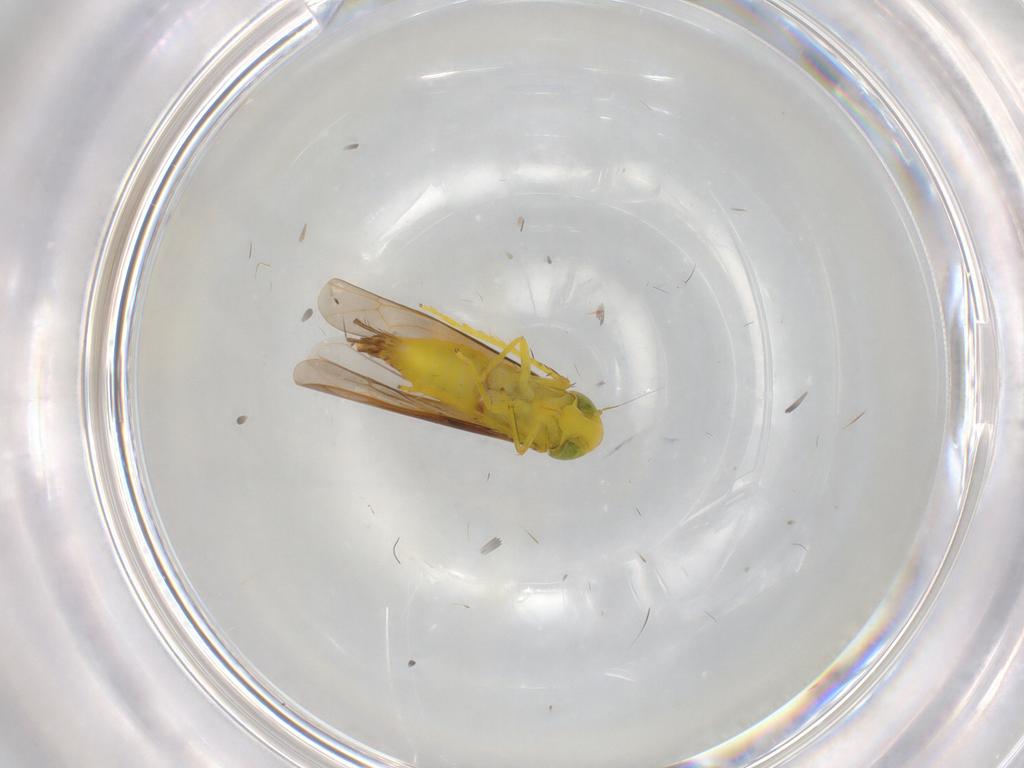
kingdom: Animalia
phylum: Arthropoda
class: Insecta
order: Hemiptera
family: Cicadellidae
